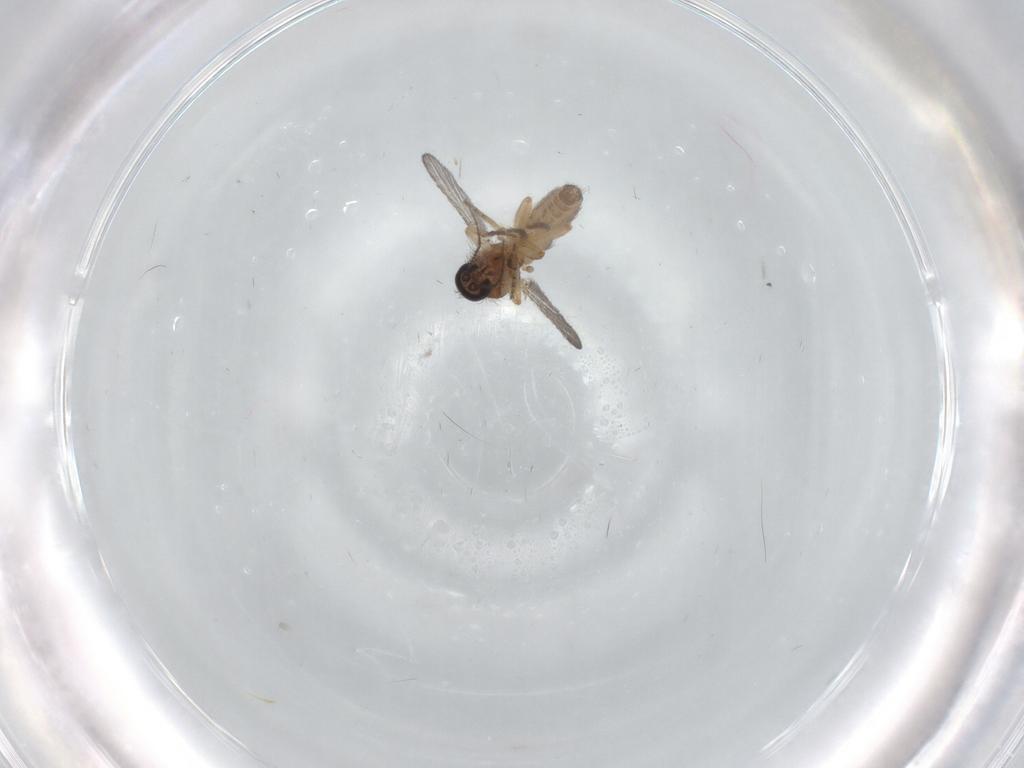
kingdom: Animalia
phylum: Arthropoda
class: Insecta
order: Diptera
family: Ceratopogonidae
